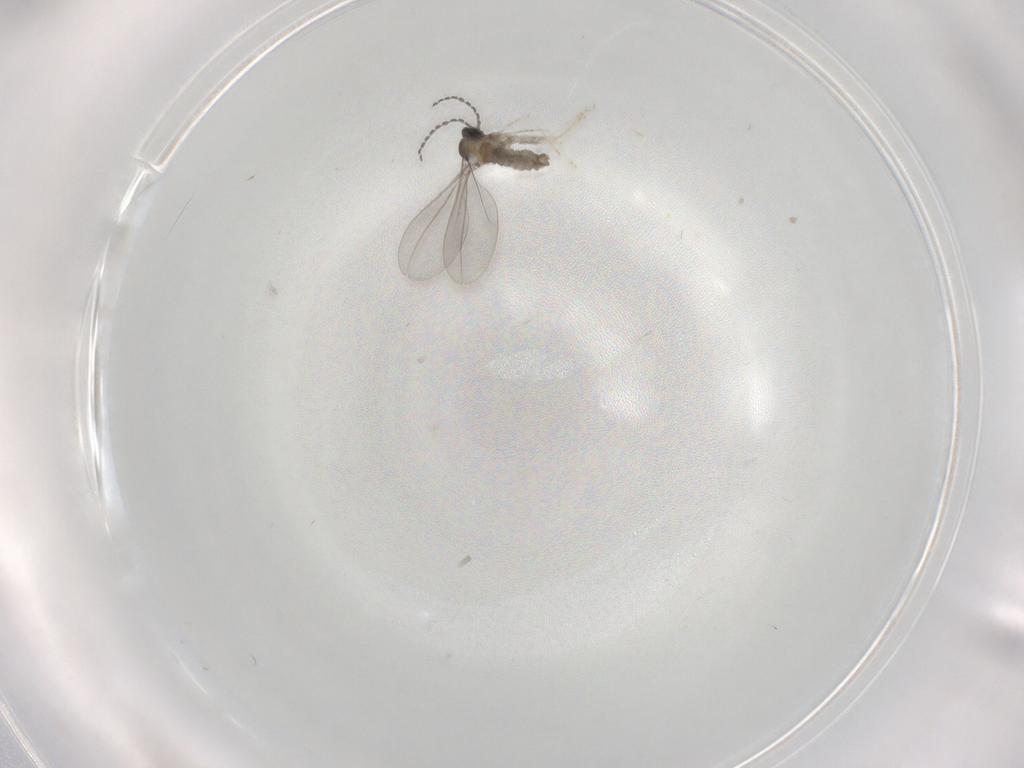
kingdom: Animalia
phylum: Arthropoda
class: Insecta
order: Diptera
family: Cecidomyiidae
